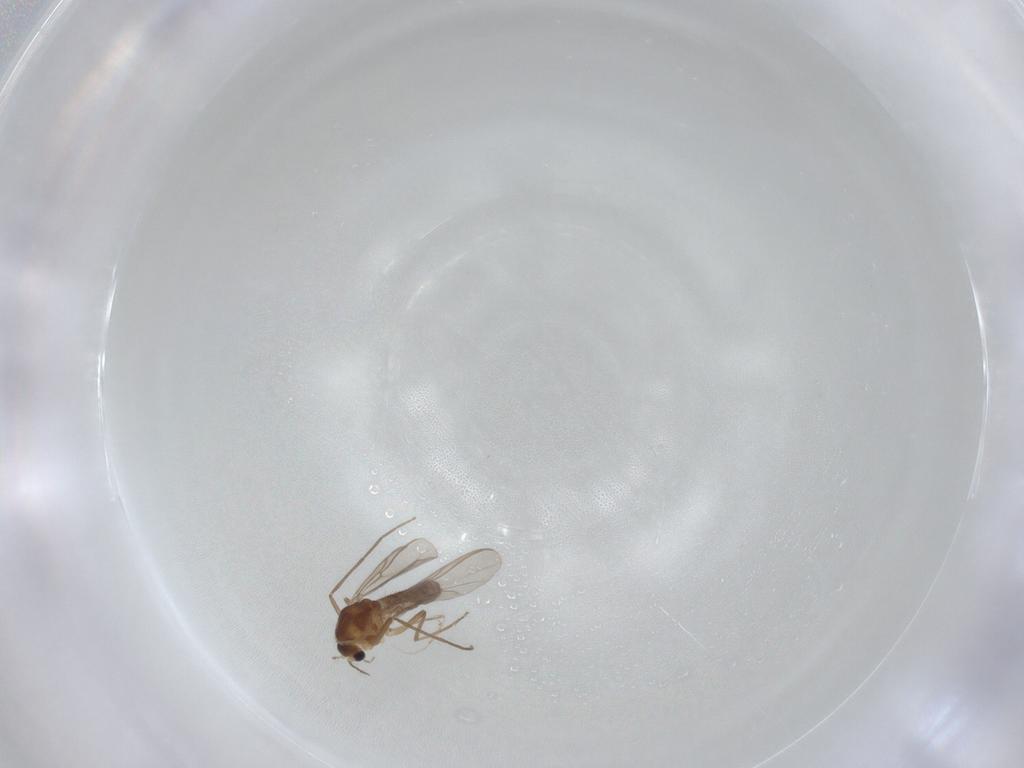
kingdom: Animalia
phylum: Arthropoda
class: Insecta
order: Diptera
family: Chironomidae
